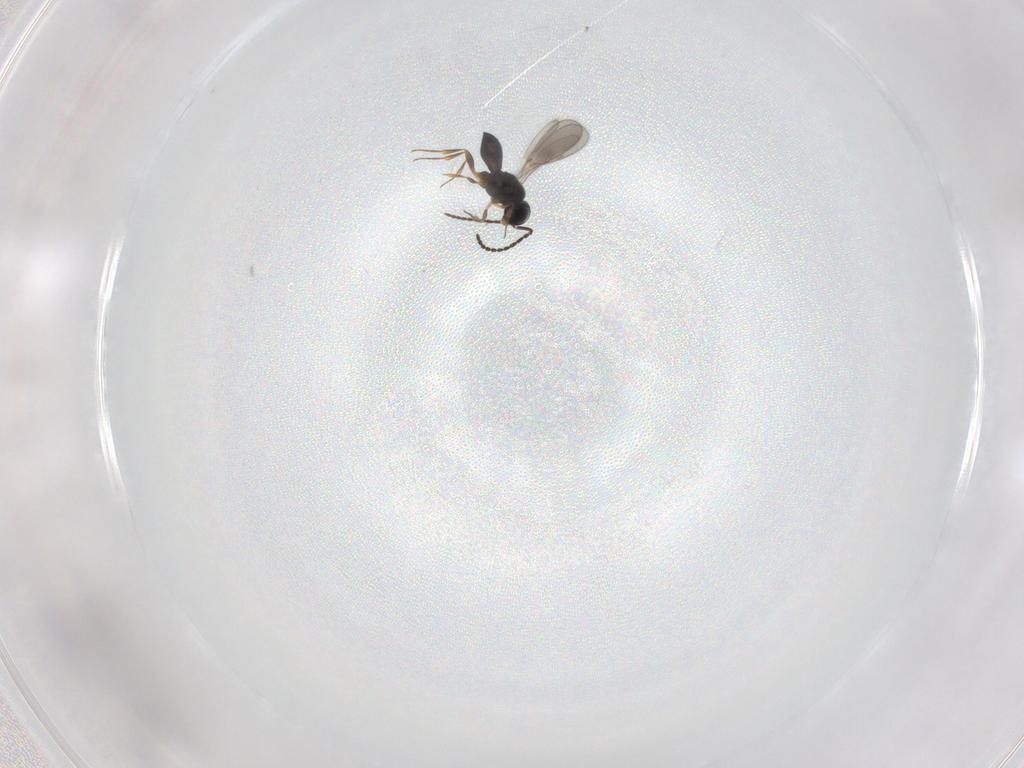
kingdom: Animalia
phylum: Arthropoda
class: Insecta
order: Hymenoptera
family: Scelionidae
